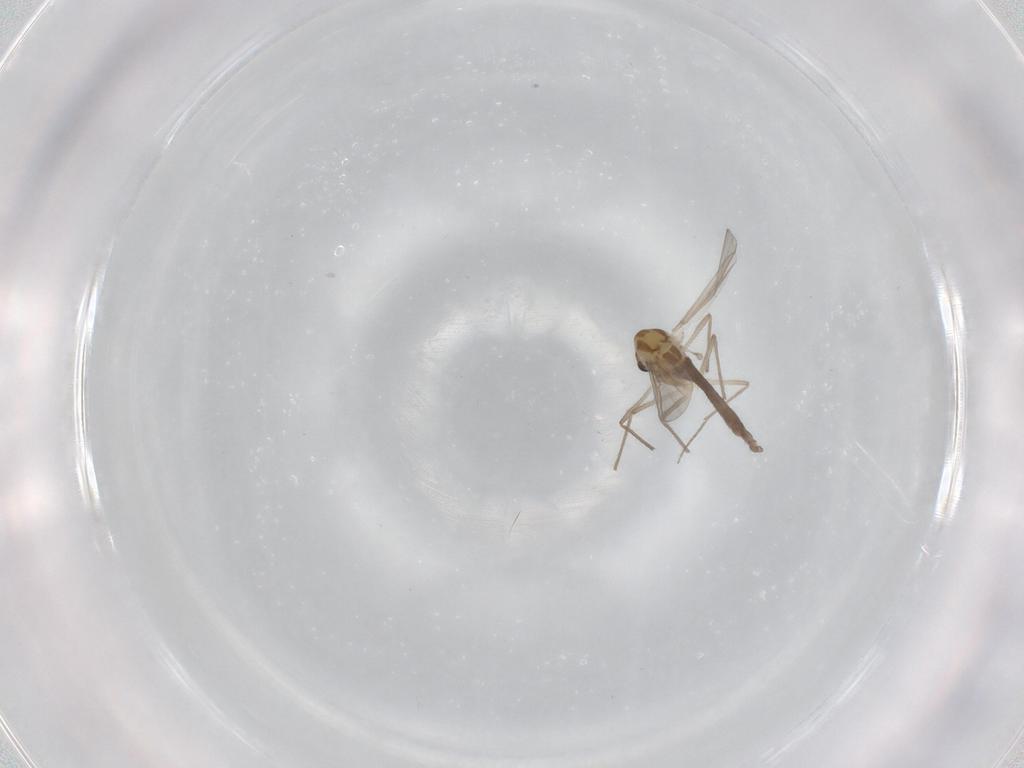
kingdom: Animalia
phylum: Arthropoda
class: Insecta
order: Diptera
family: Chironomidae
